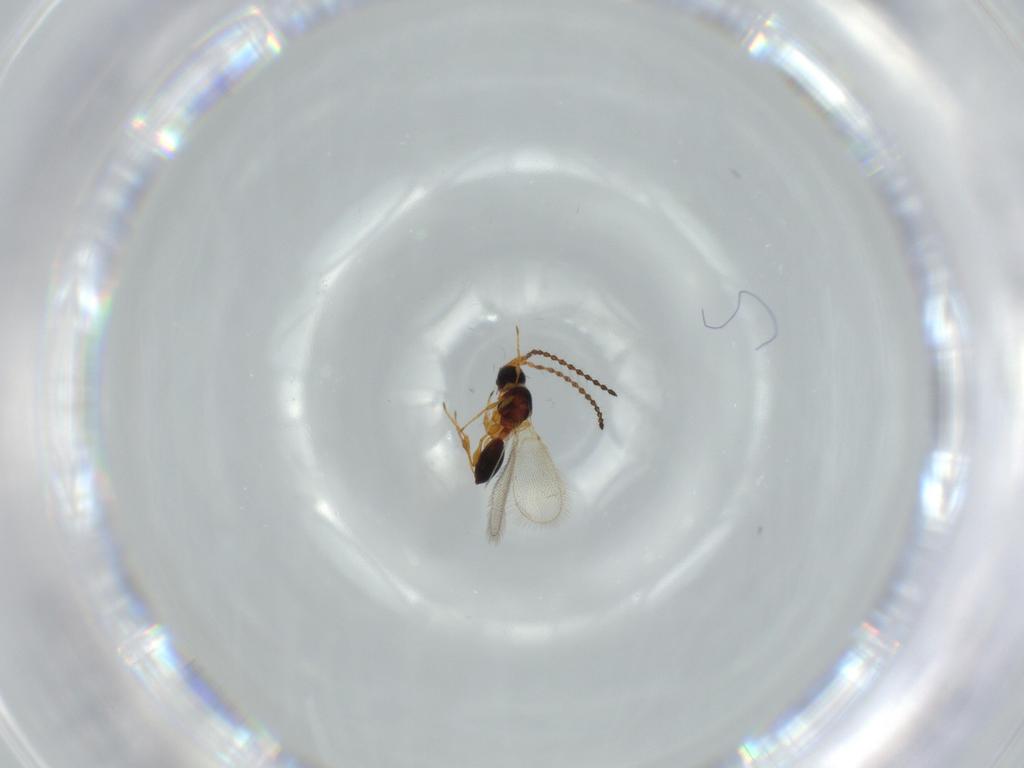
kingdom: Animalia
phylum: Arthropoda
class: Insecta
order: Hymenoptera
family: Diapriidae
